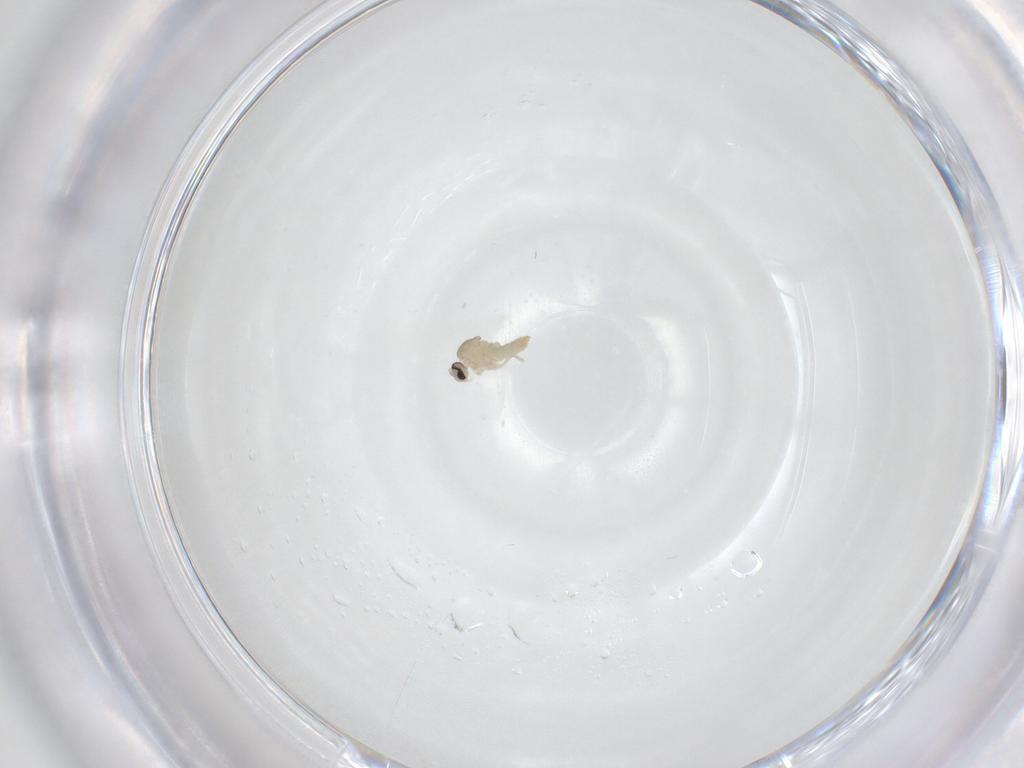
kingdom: Animalia
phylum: Arthropoda
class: Insecta
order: Diptera
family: Cecidomyiidae
